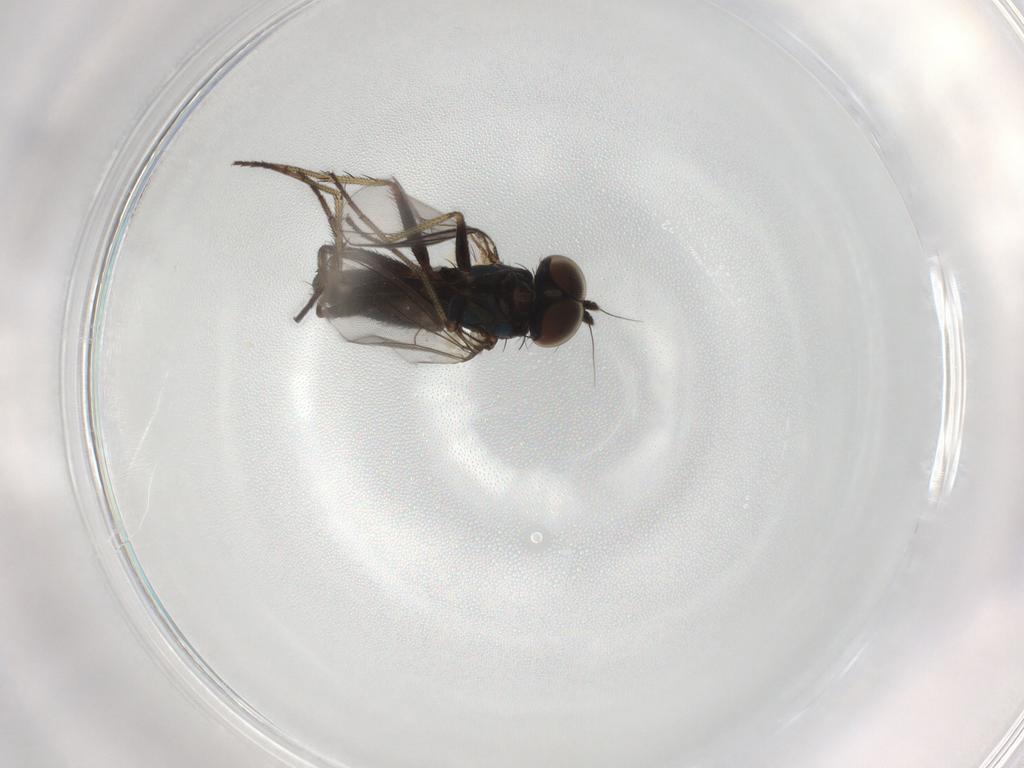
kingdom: Animalia
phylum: Arthropoda
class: Insecta
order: Diptera
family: Dolichopodidae
